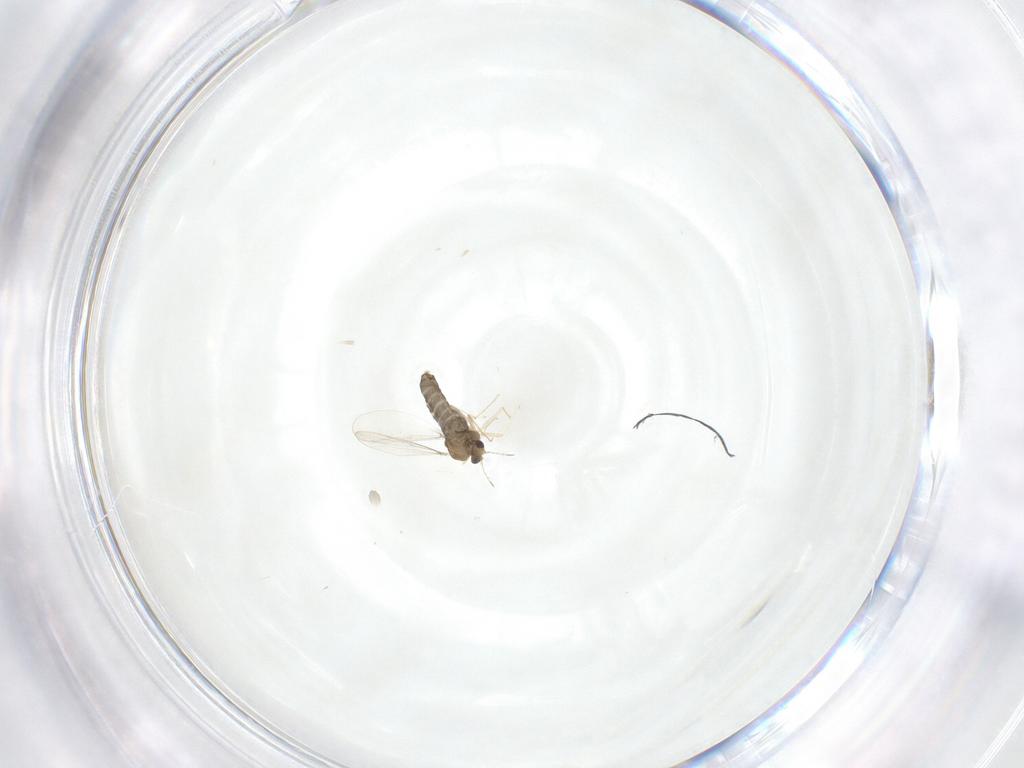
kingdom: Animalia
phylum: Arthropoda
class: Insecta
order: Diptera
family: Chironomidae
